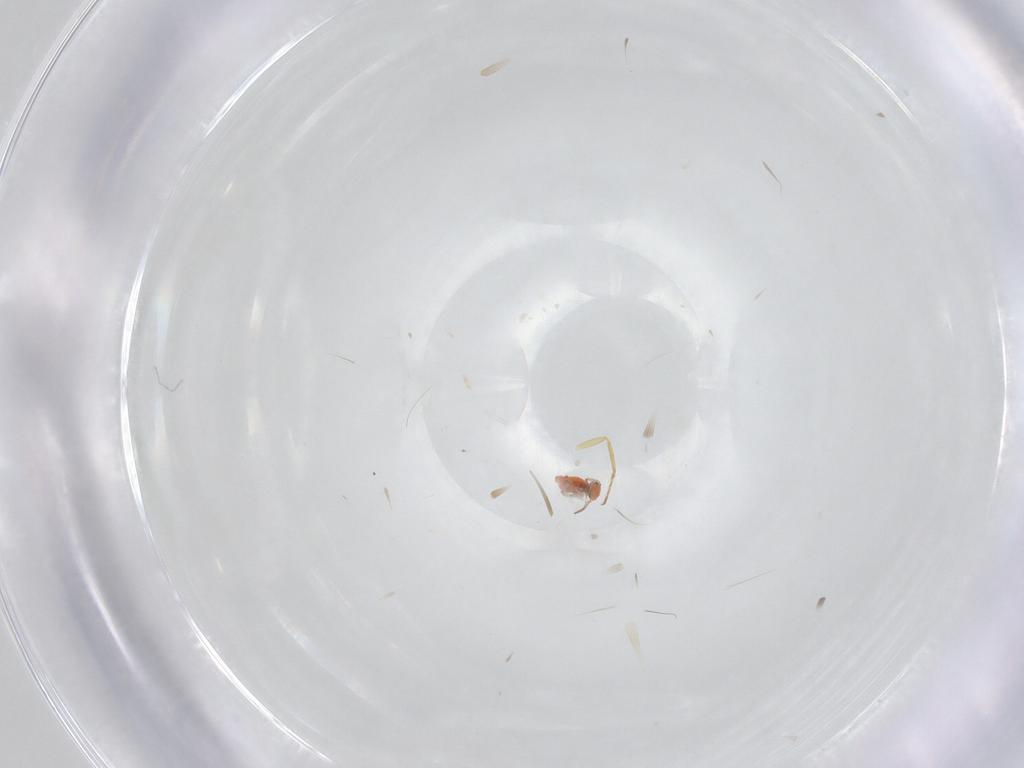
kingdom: Animalia
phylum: Arthropoda
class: Collembola
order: Symphypleona
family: Bourletiellidae
